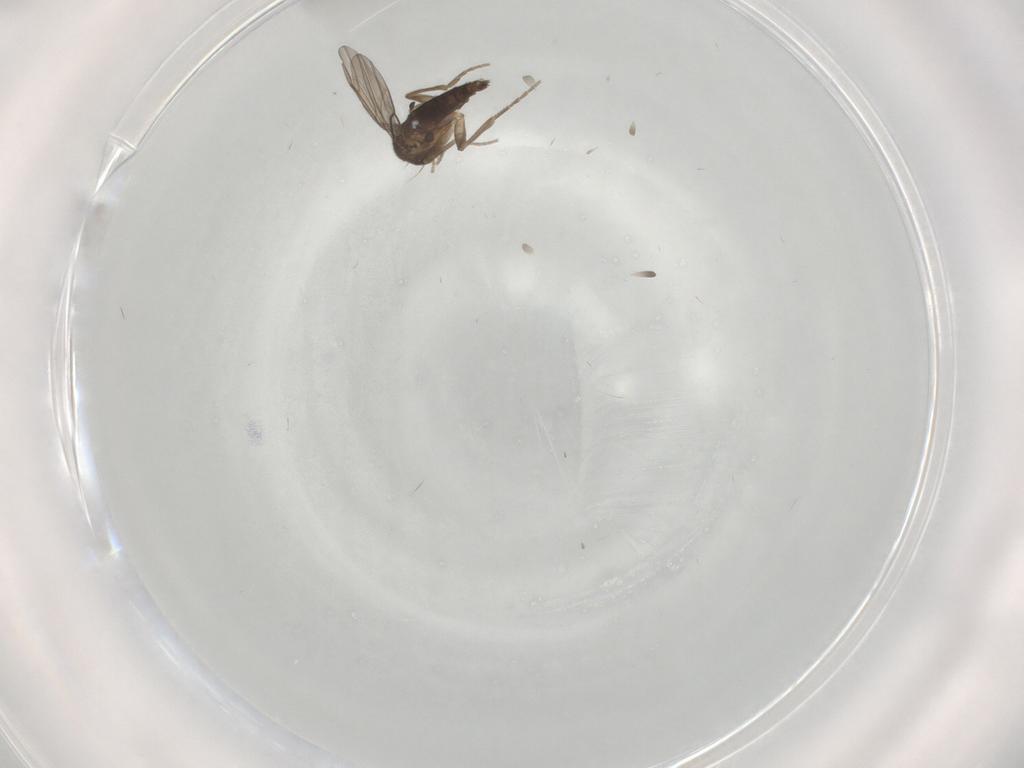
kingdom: Animalia
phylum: Arthropoda
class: Insecta
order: Diptera
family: Phoridae
